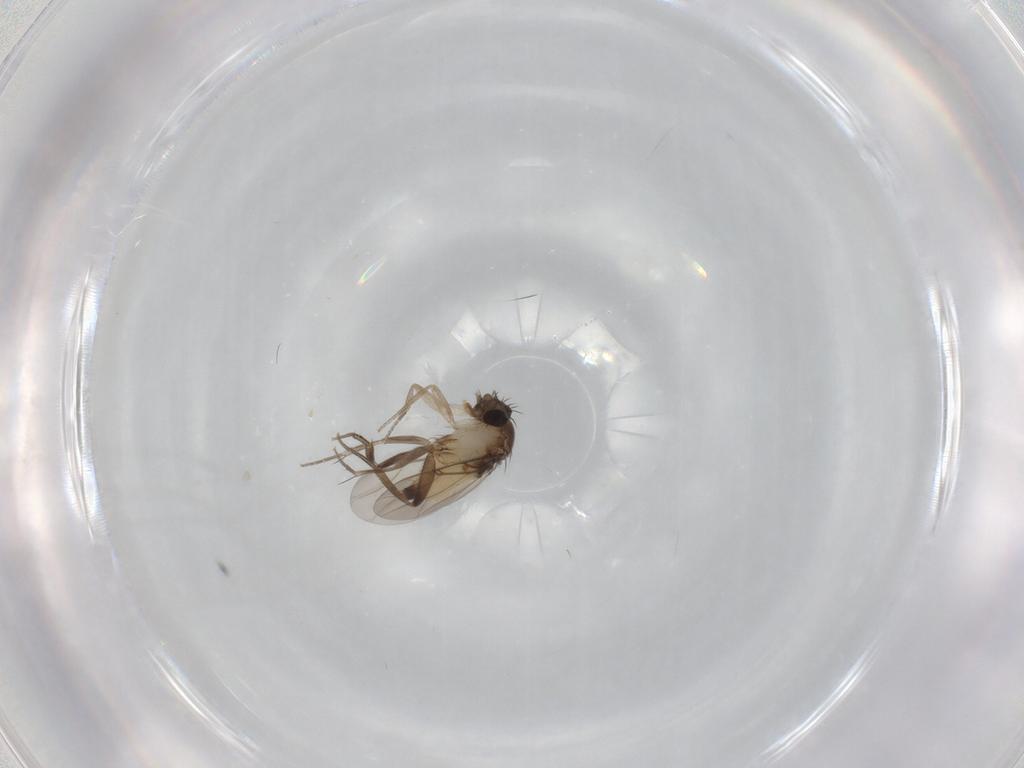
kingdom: Animalia
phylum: Arthropoda
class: Insecta
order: Diptera
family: Phoridae
